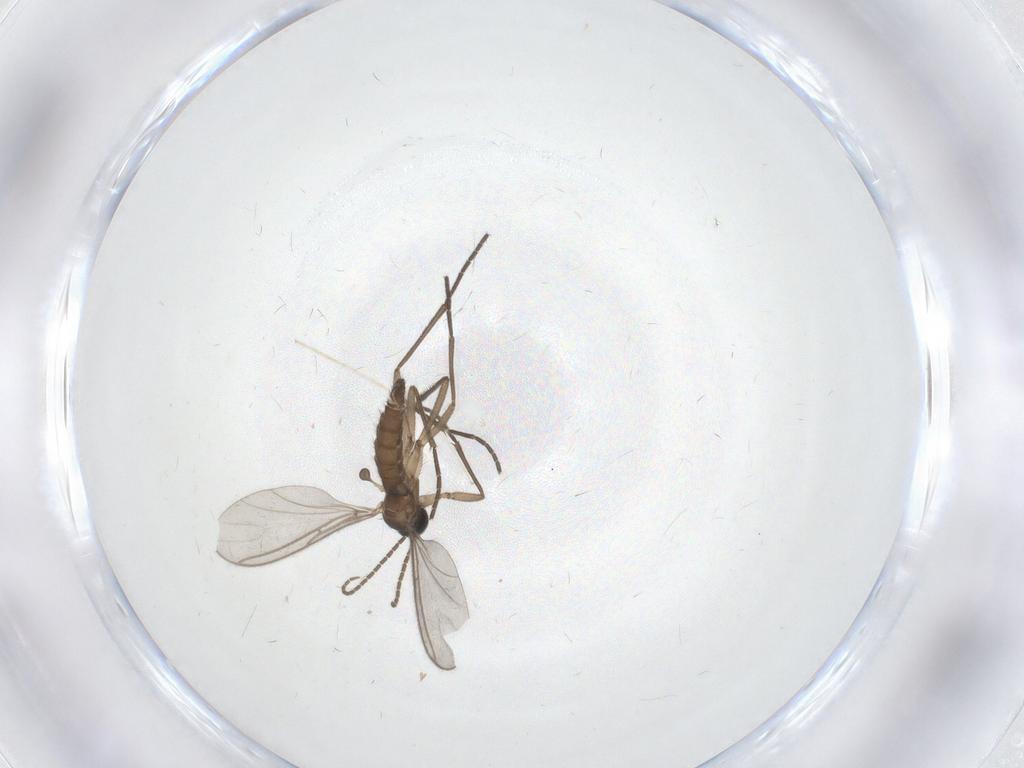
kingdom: Animalia
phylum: Arthropoda
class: Insecta
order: Diptera
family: Sciaridae
